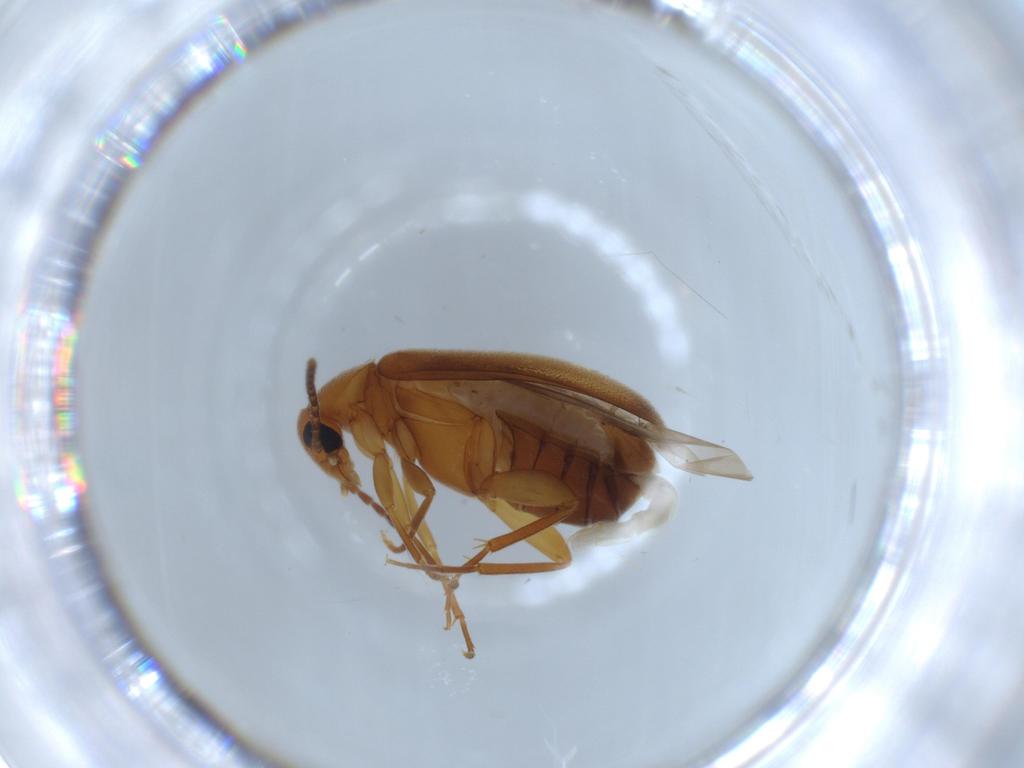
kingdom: Animalia
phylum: Arthropoda
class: Insecta
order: Coleoptera
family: Scraptiidae
